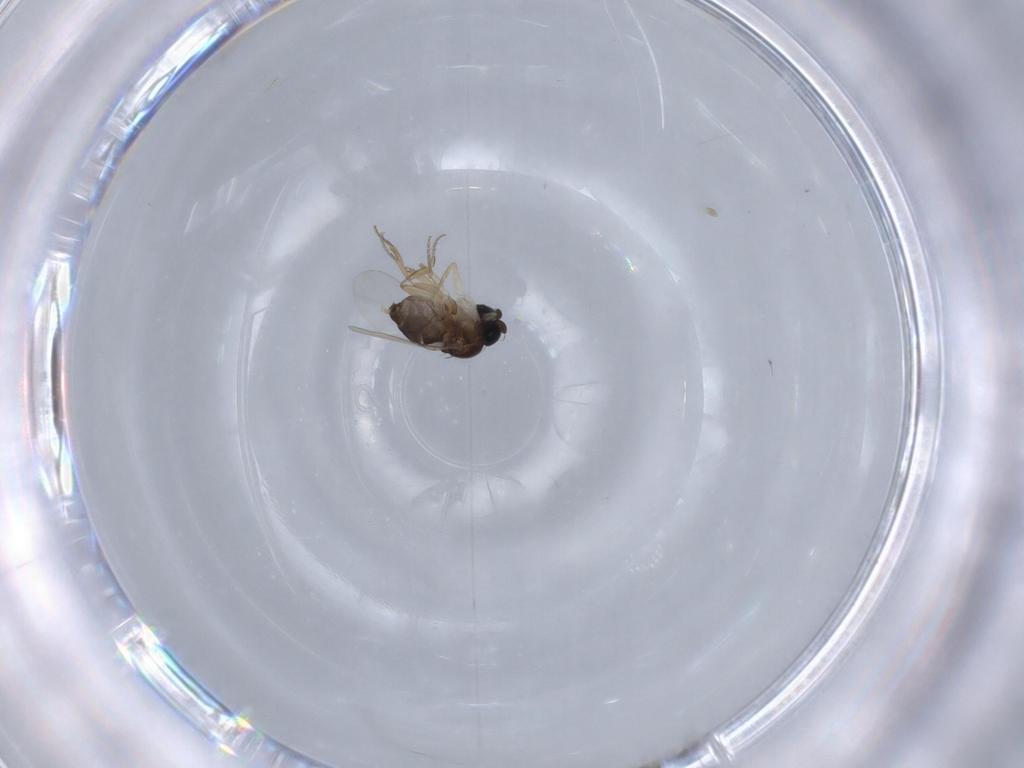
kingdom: Animalia
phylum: Arthropoda
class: Insecta
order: Diptera
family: Phoridae
